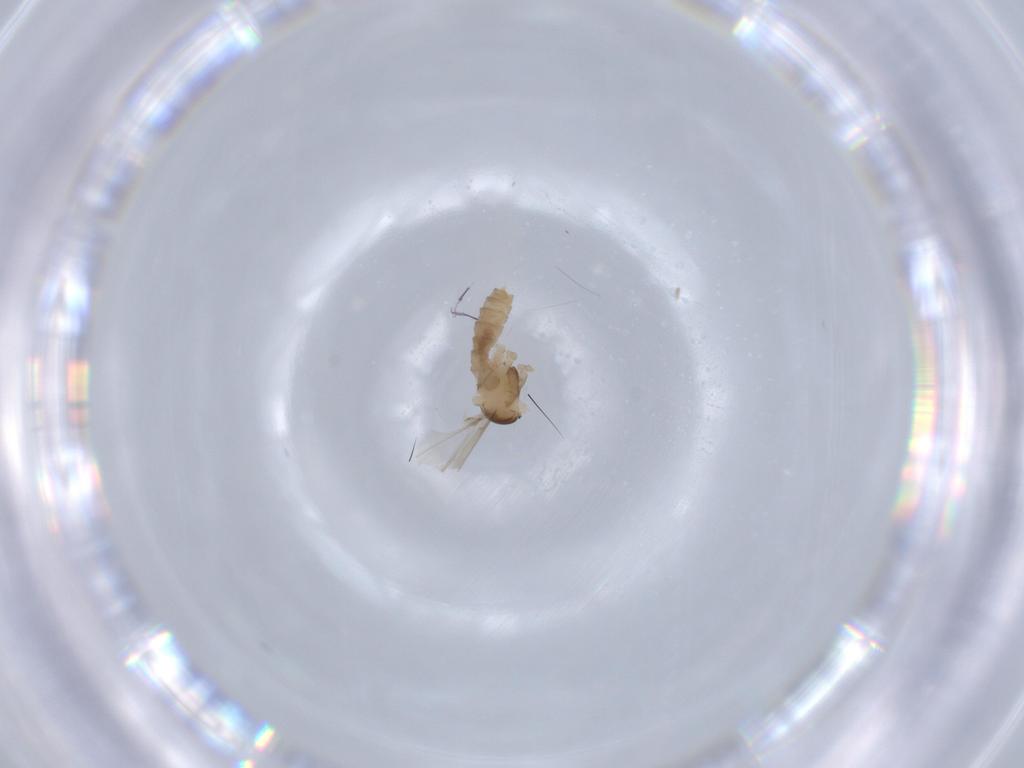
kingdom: Animalia
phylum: Arthropoda
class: Insecta
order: Diptera
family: Cecidomyiidae
